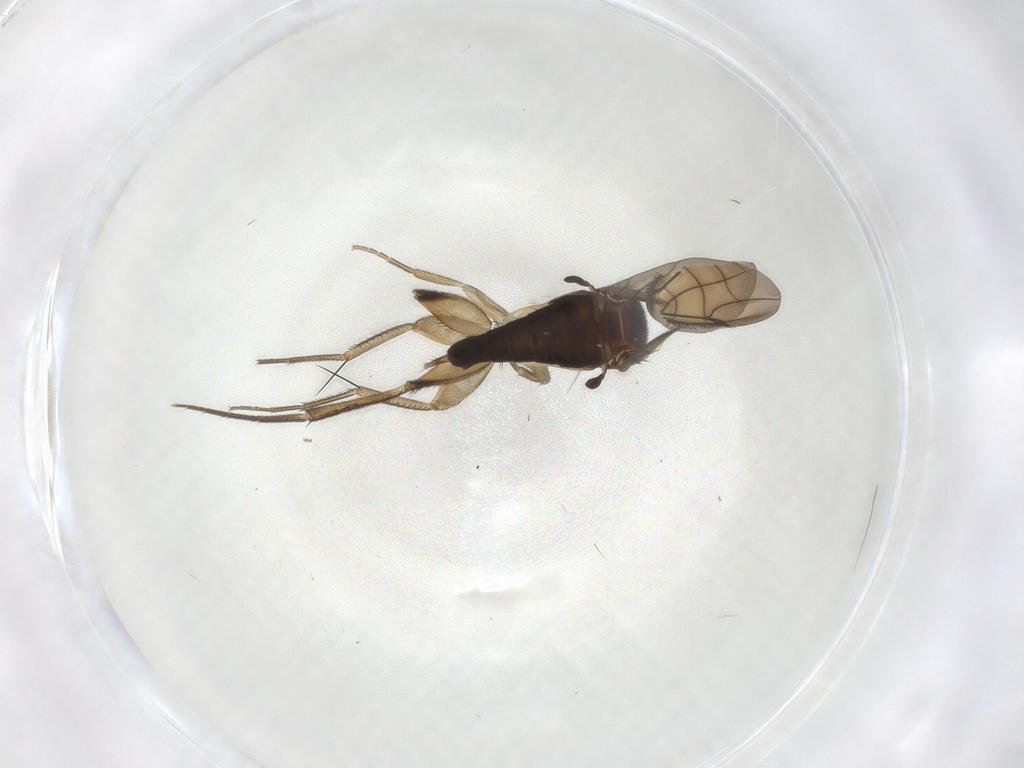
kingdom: Animalia
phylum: Arthropoda
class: Insecta
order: Diptera
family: Phoridae
